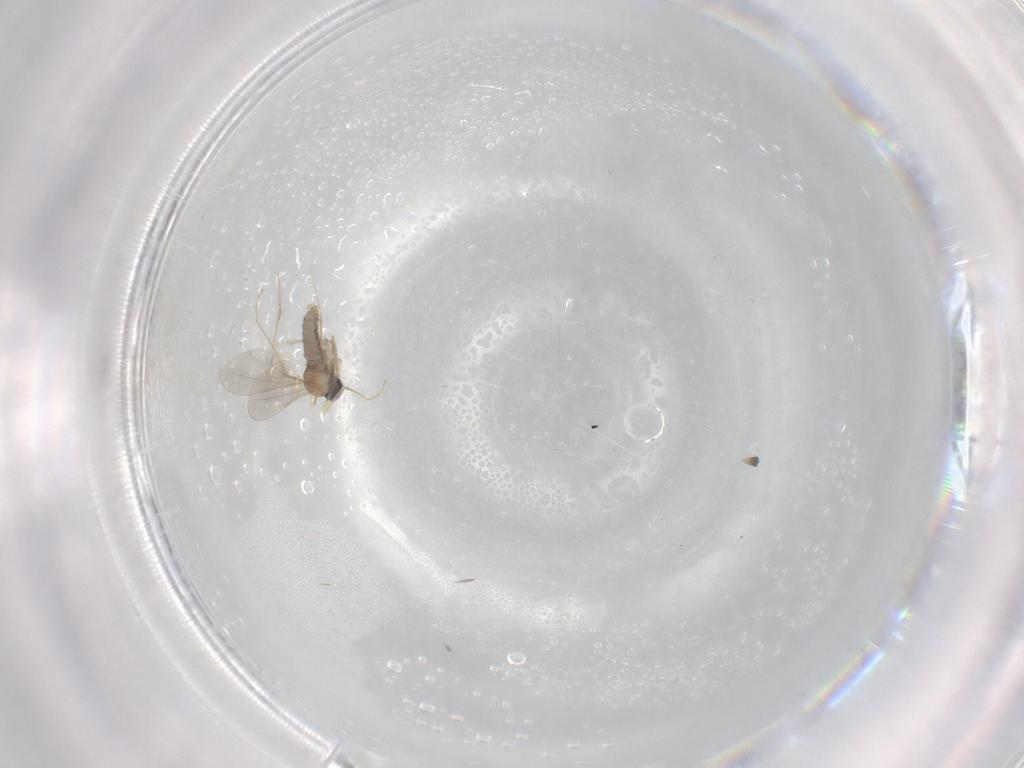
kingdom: Animalia
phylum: Arthropoda
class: Insecta
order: Diptera
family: Cecidomyiidae
